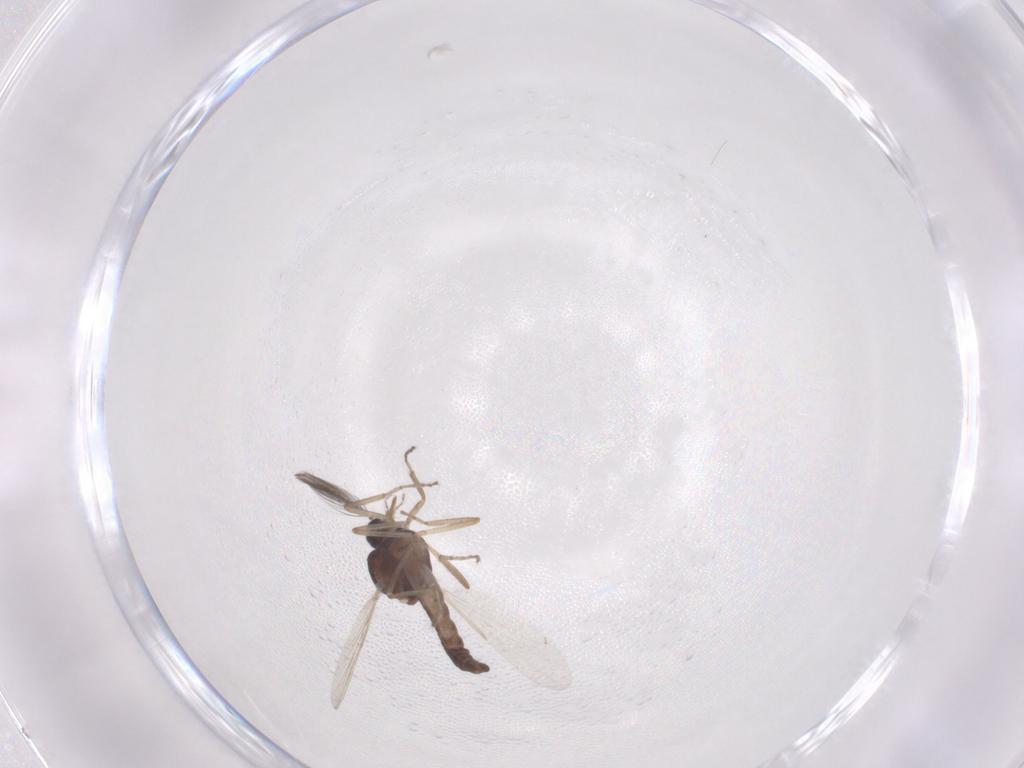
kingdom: Animalia
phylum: Arthropoda
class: Insecta
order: Diptera
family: Ceratopogonidae
